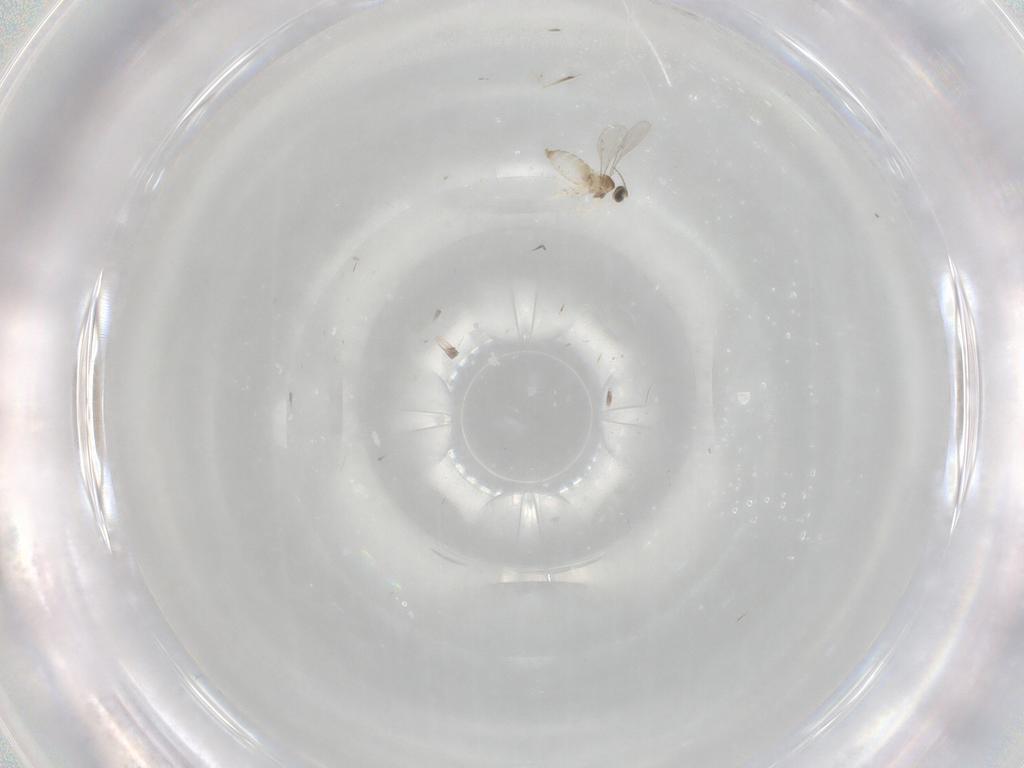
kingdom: Animalia
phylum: Arthropoda
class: Insecta
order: Diptera
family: Cecidomyiidae
